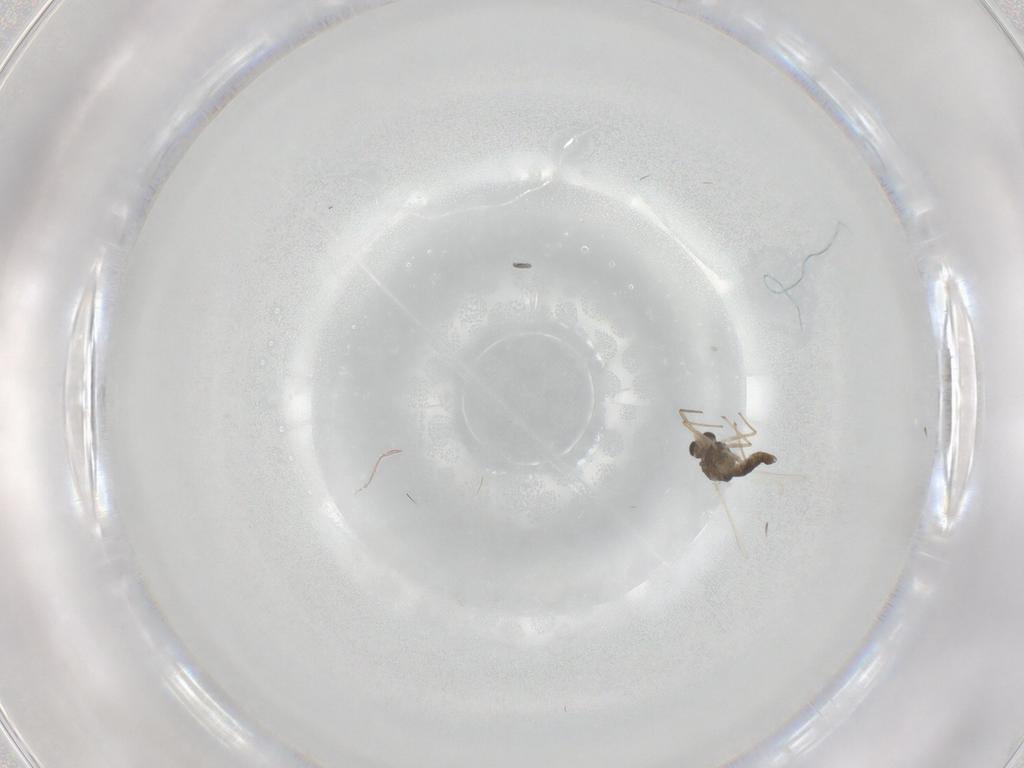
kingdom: Animalia
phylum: Arthropoda
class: Insecta
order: Diptera
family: Chironomidae
